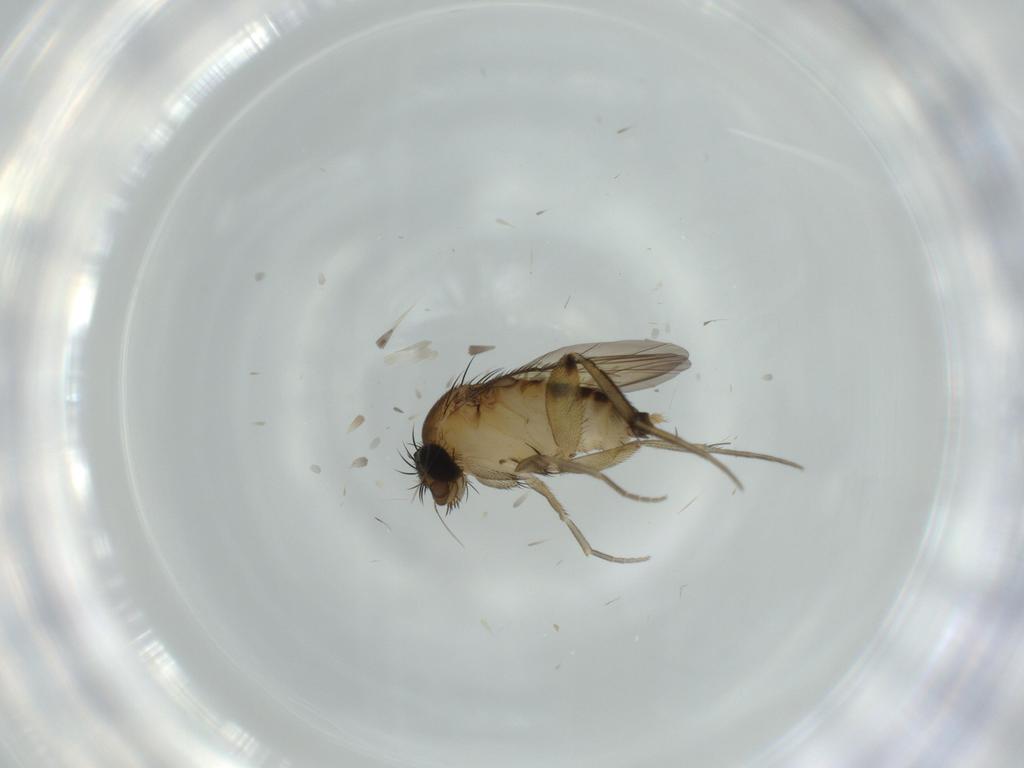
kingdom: Animalia
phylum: Arthropoda
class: Insecta
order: Diptera
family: Phoridae
